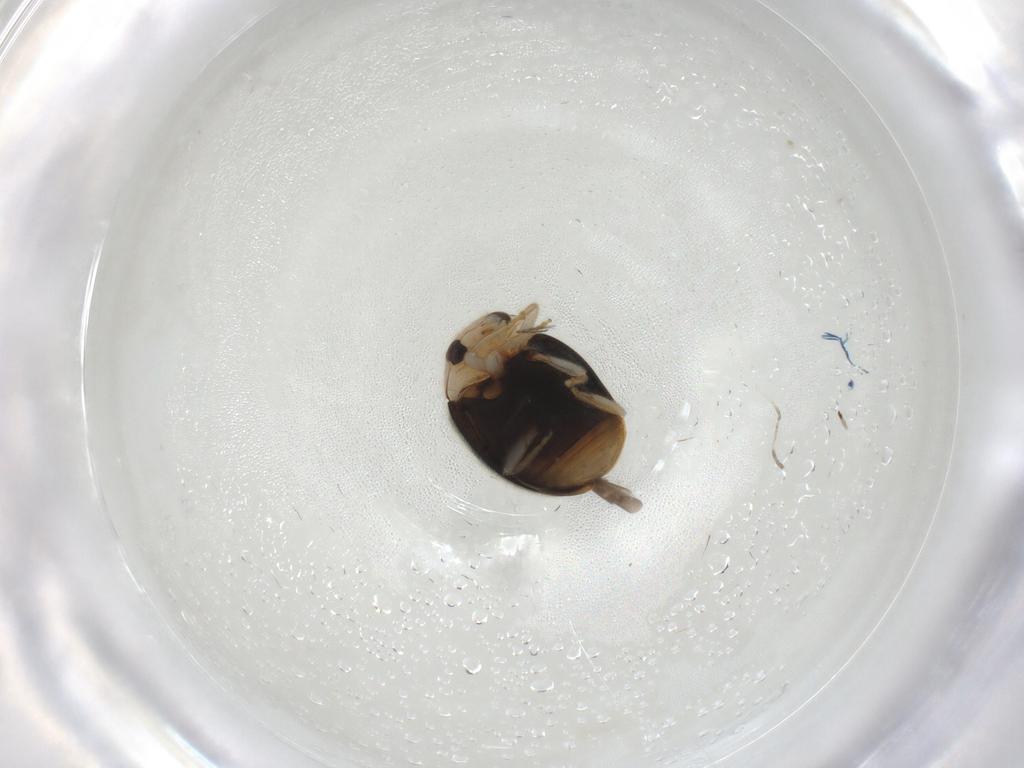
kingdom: Animalia
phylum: Arthropoda
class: Insecta
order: Coleoptera
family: Coccinellidae
